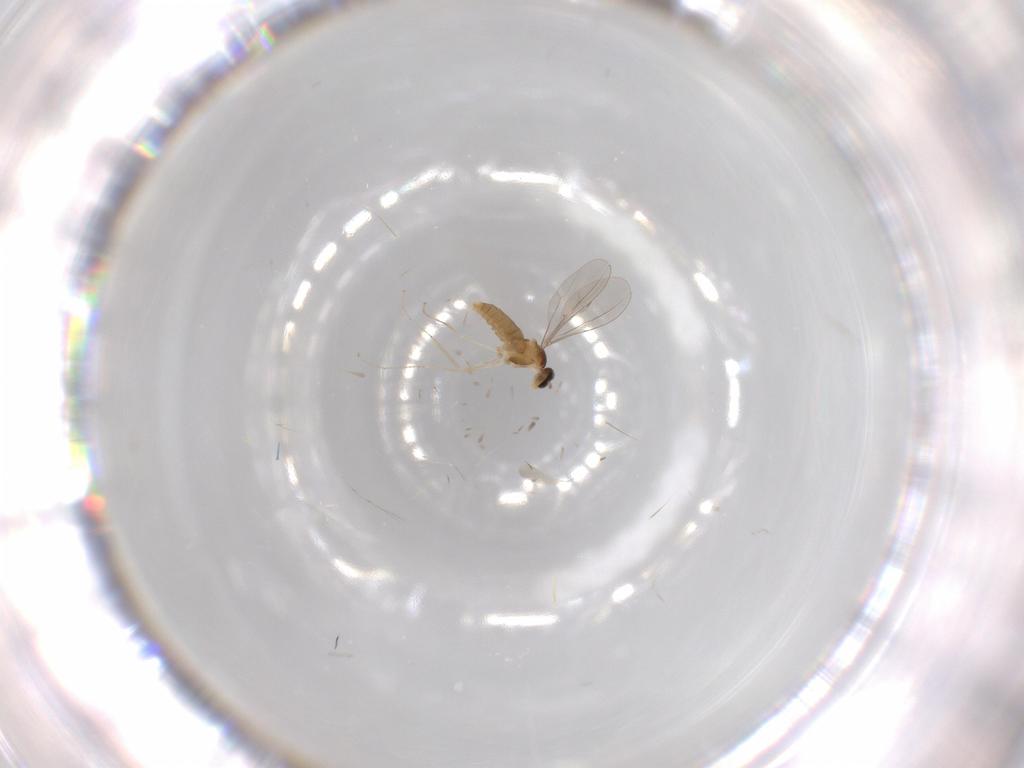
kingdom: Animalia
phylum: Arthropoda
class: Insecta
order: Diptera
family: Chironomidae
